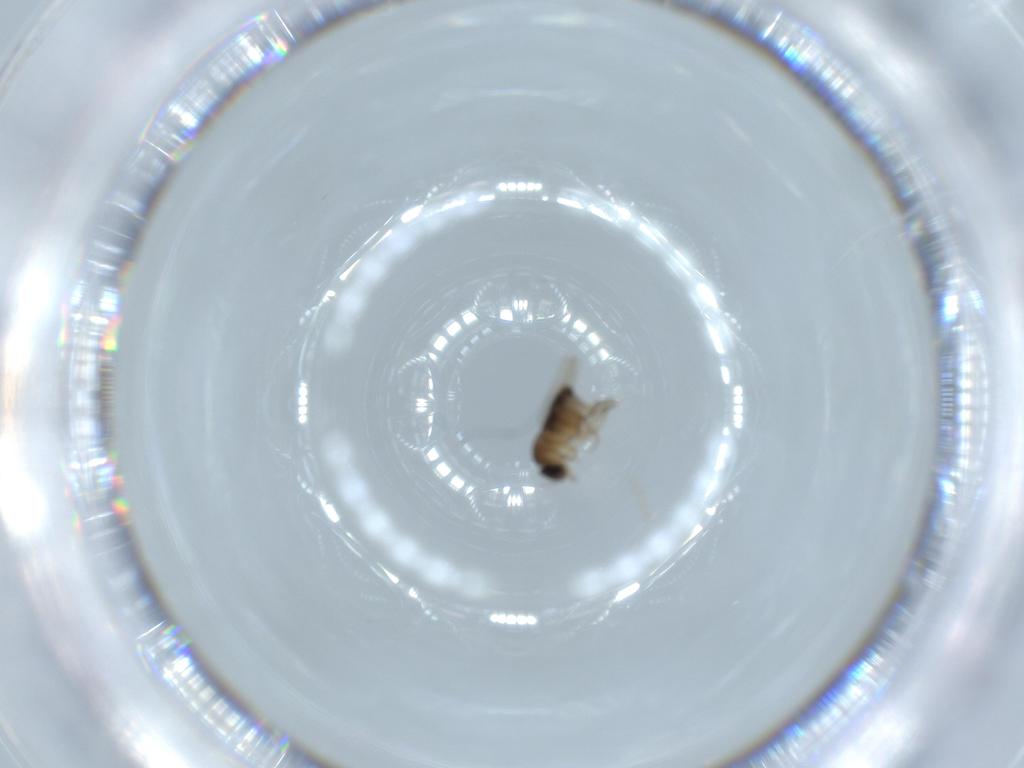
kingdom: Animalia
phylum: Arthropoda
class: Insecta
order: Diptera
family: Phoridae
